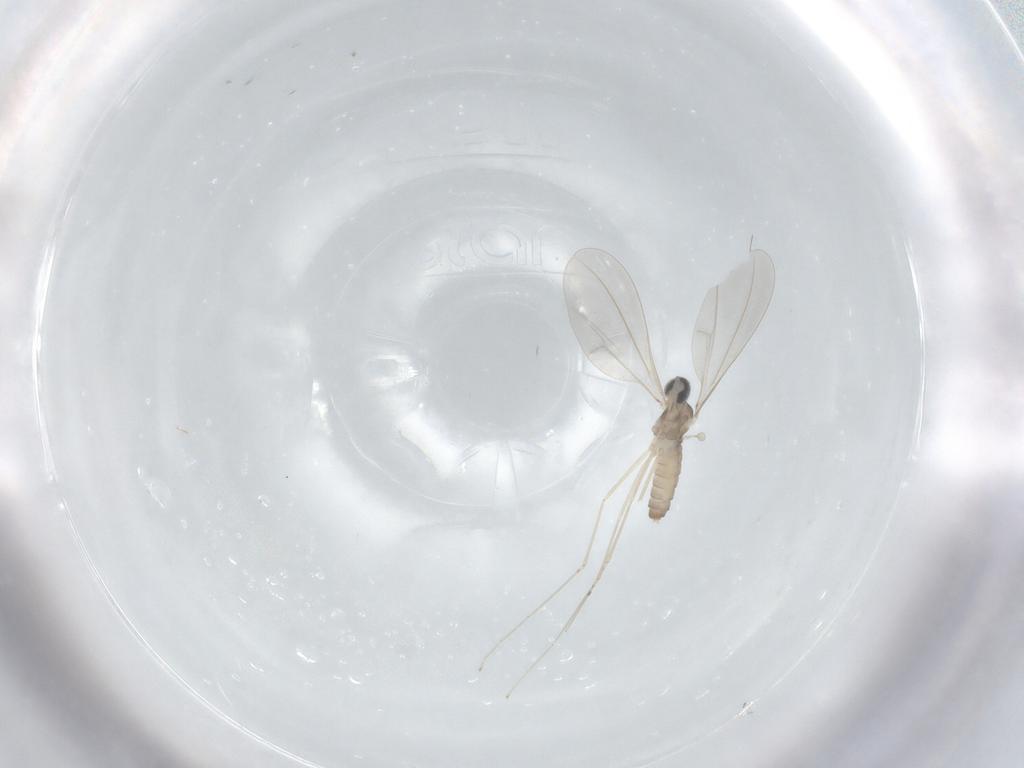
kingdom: Animalia
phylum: Arthropoda
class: Insecta
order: Diptera
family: Cecidomyiidae
